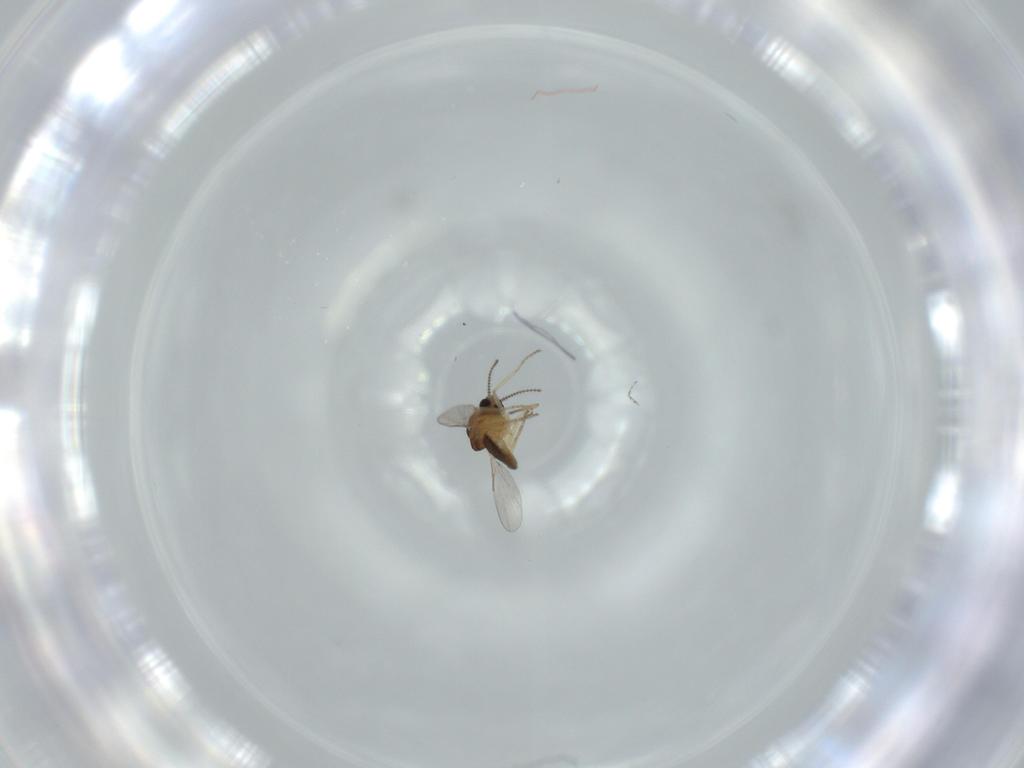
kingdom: Animalia
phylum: Arthropoda
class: Insecta
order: Diptera
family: Ceratopogonidae
